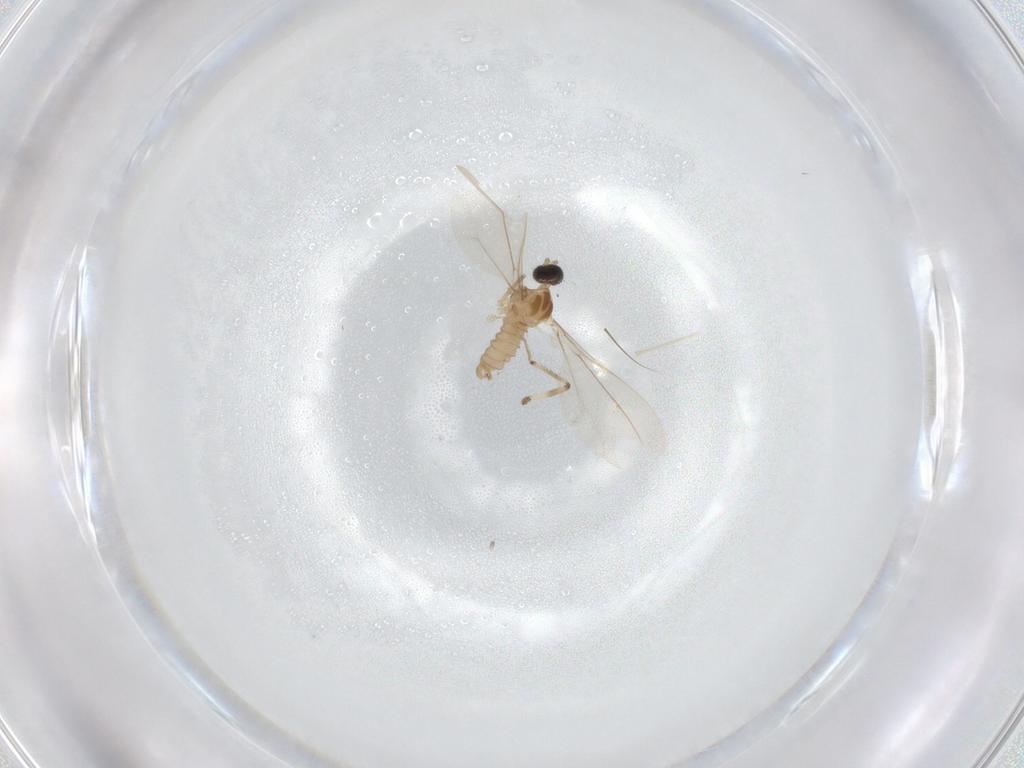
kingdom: Animalia
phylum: Arthropoda
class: Insecta
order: Diptera
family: Cecidomyiidae
